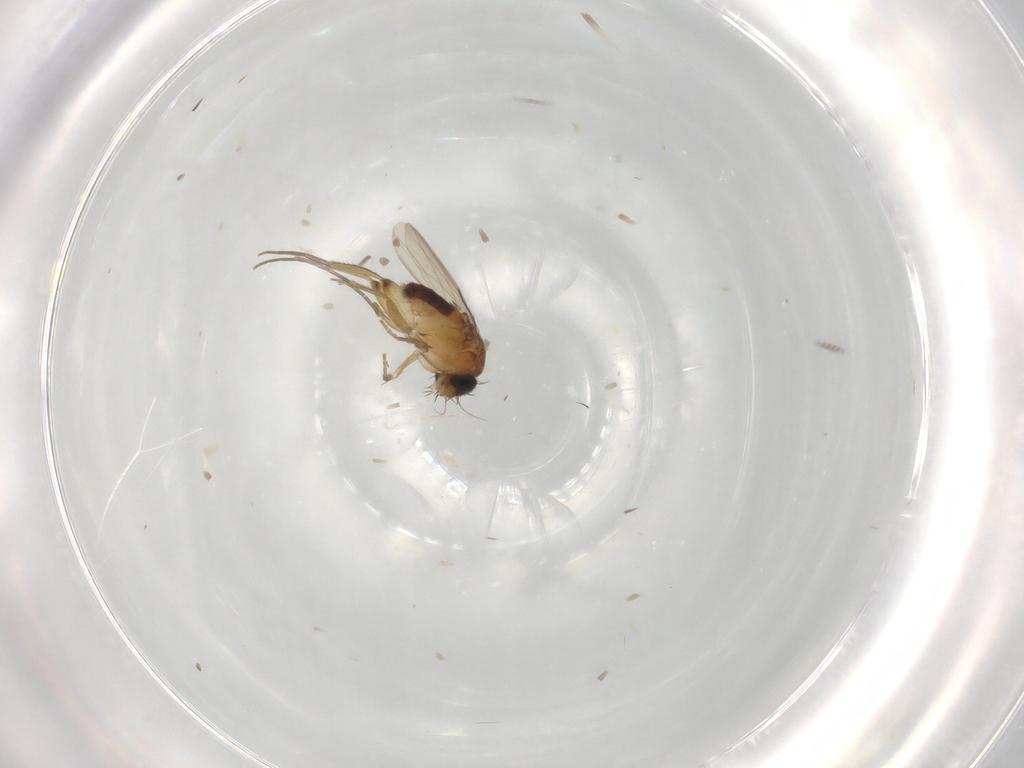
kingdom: Animalia
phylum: Arthropoda
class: Insecta
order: Diptera
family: Phoridae
